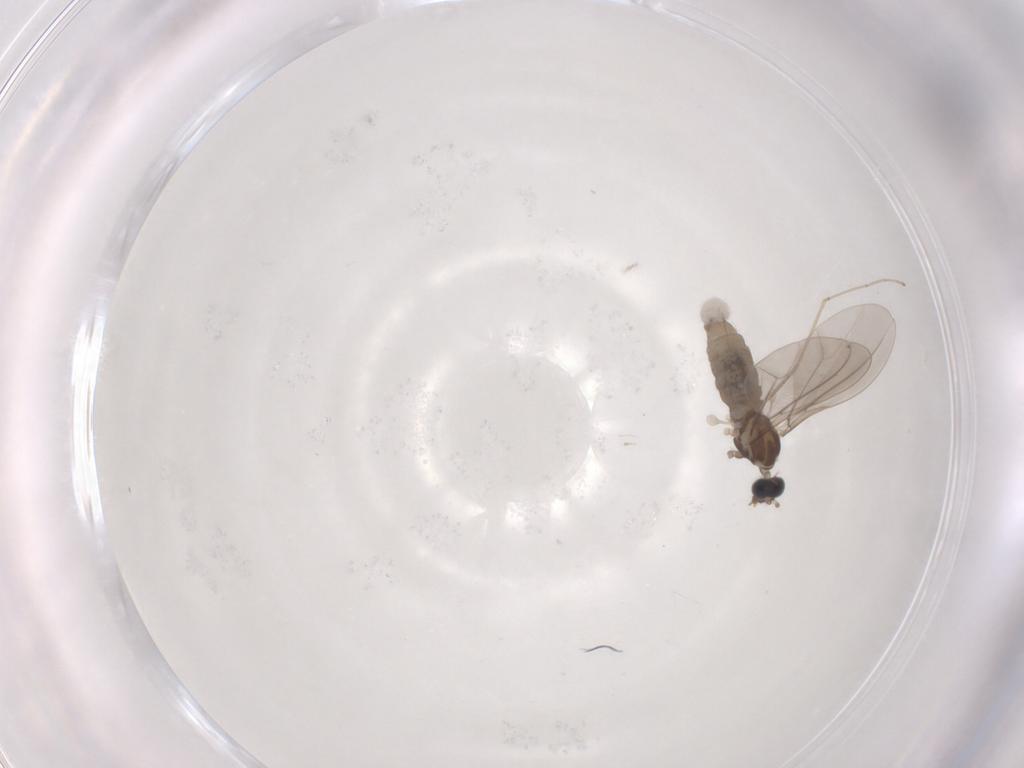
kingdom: Animalia
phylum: Arthropoda
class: Insecta
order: Diptera
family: Cecidomyiidae
